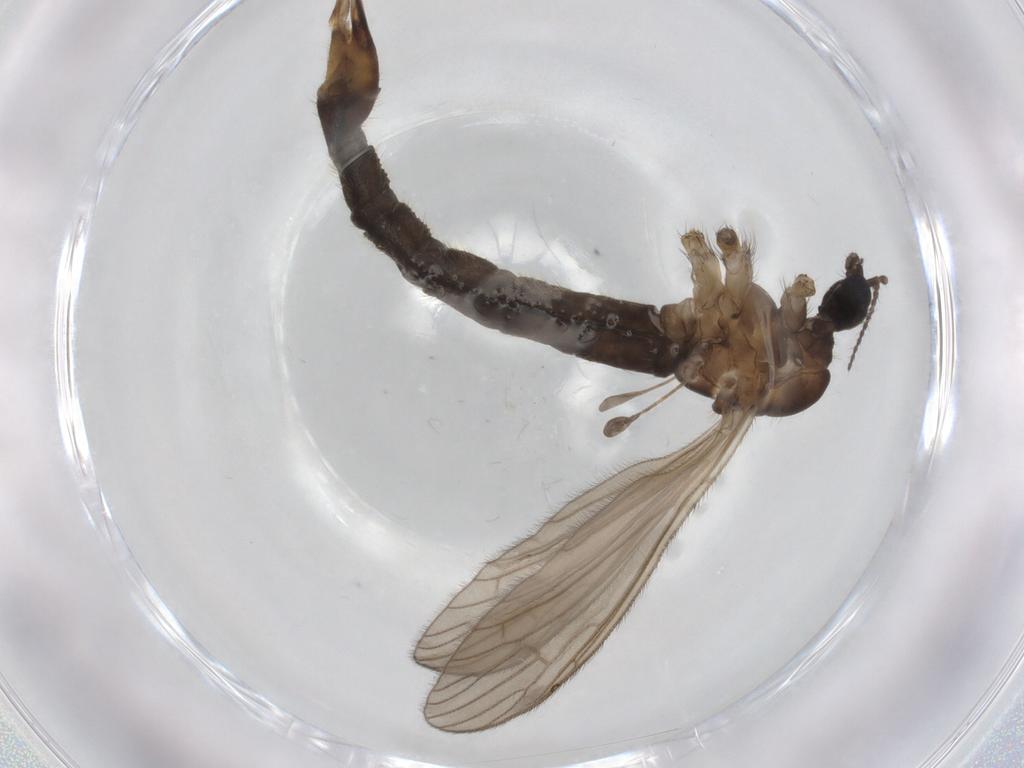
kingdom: Animalia
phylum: Arthropoda
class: Insecta
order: Diptera
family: Limoniidae
